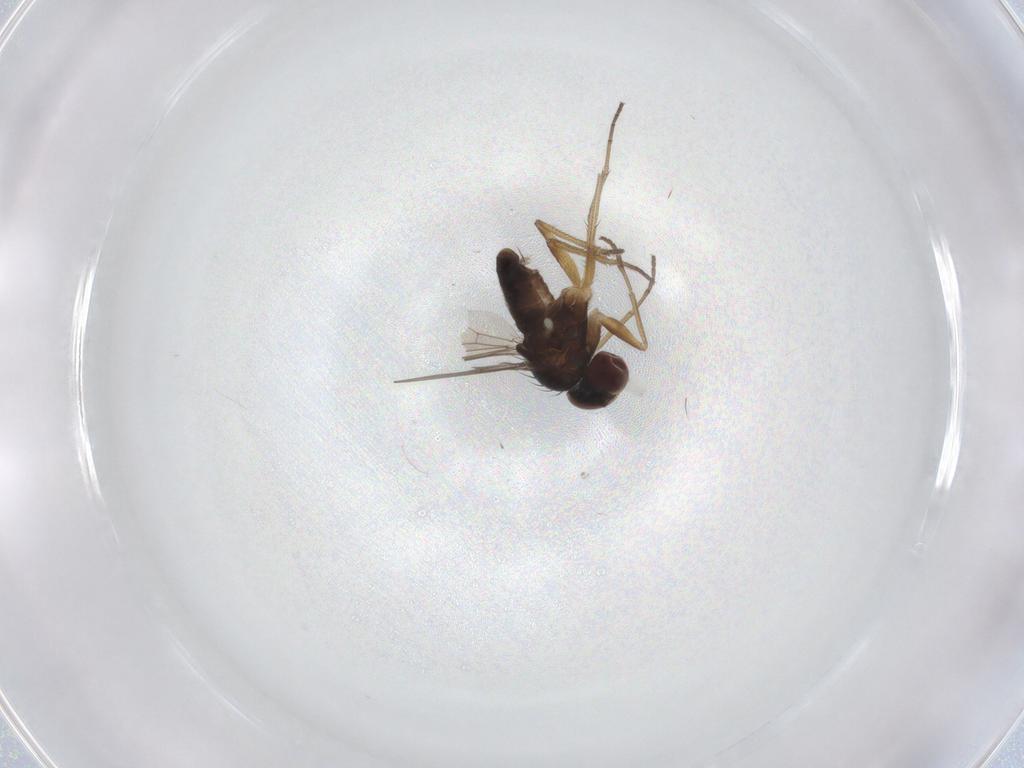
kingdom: Animalia
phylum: Arthropoda
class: Insecta
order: Diptera
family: Dolichopodidae
